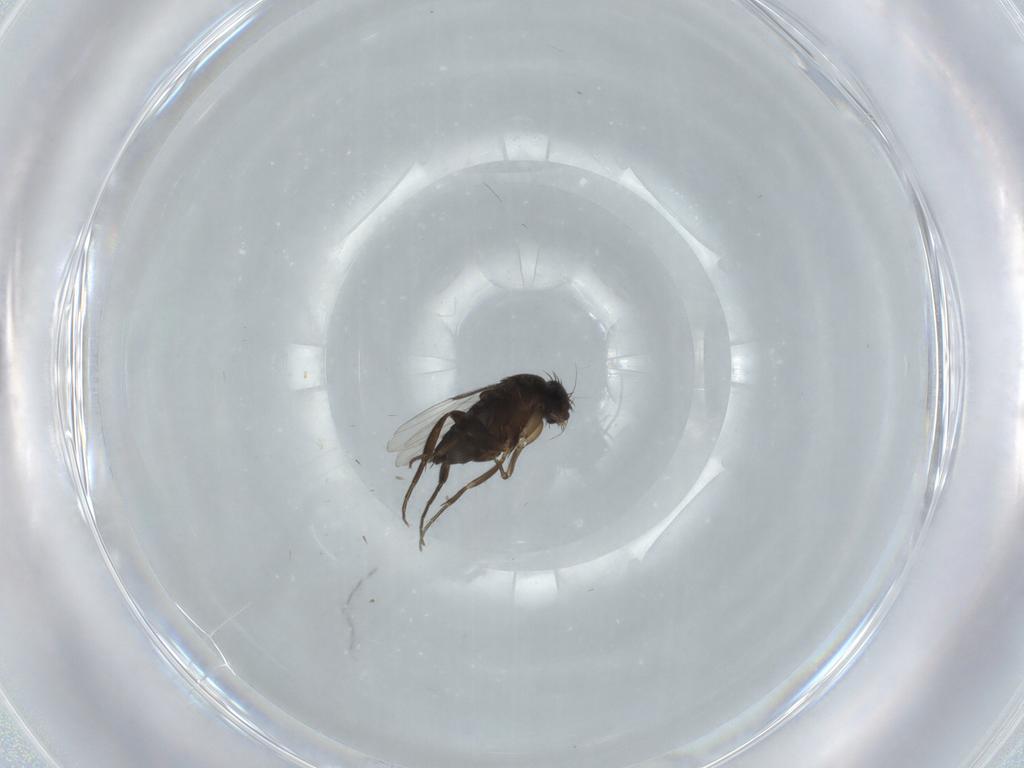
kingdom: Animalia
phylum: Arthropoda
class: Insecta
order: Diptera
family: Phoridae
